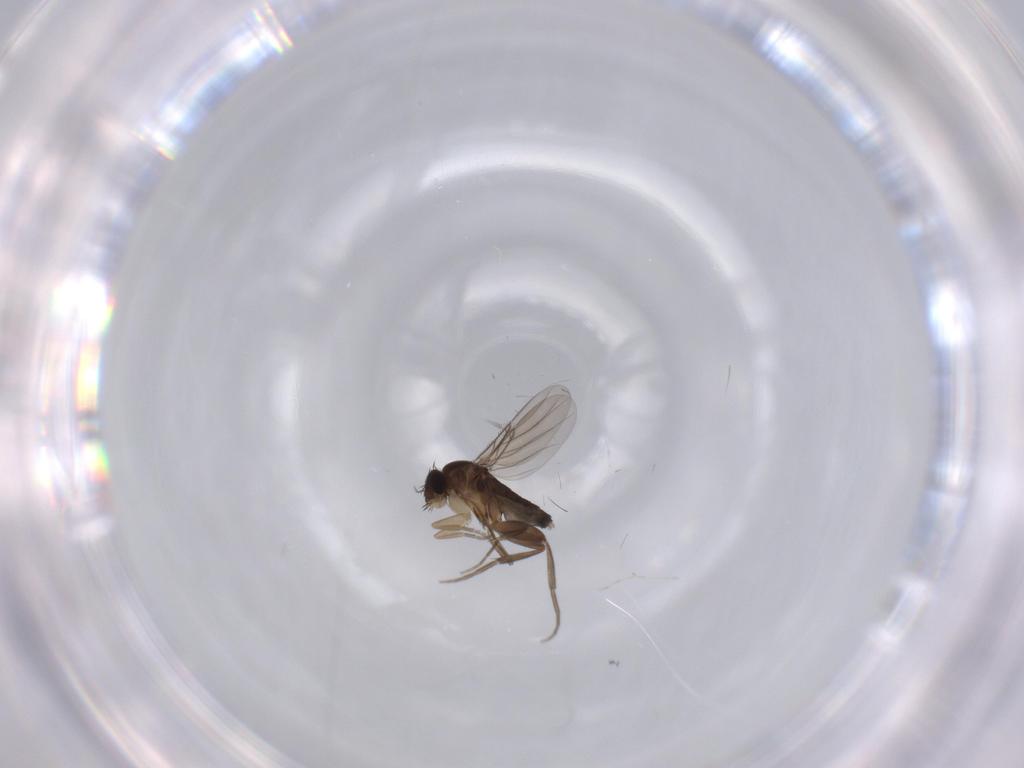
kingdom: Animalia
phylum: Arthropoda
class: Insecta
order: Diptera
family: Phoridae
